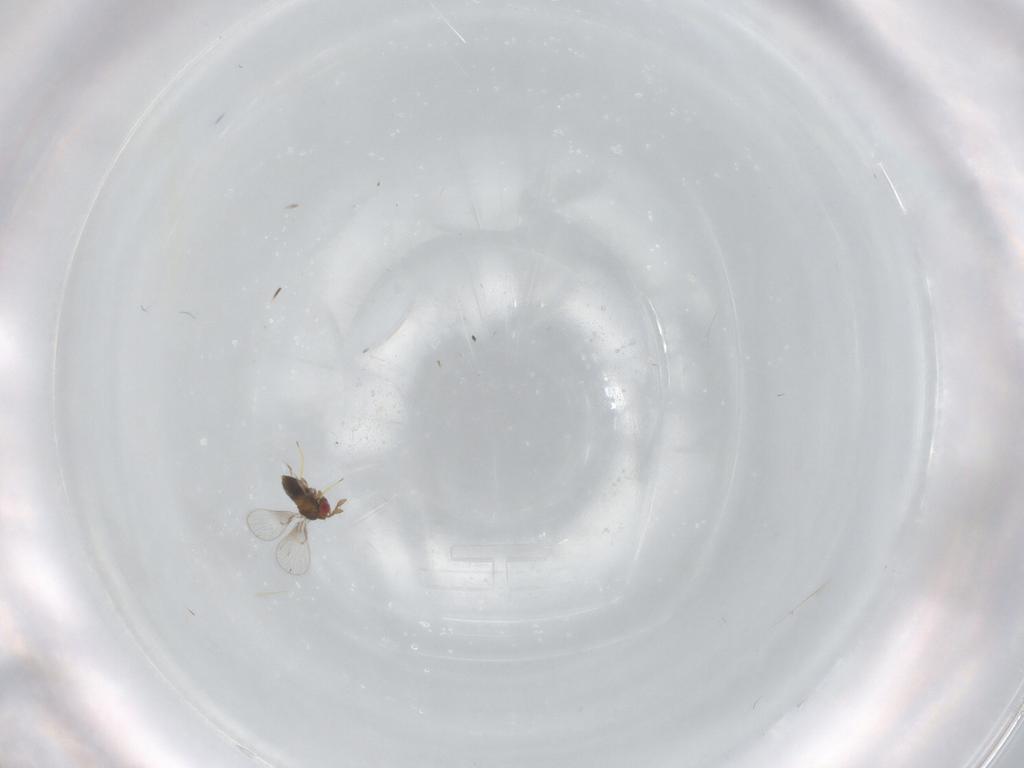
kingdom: Animalia
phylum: Arthropoda
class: Insecta
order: Hymenoptera
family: Trichogrammatidae
